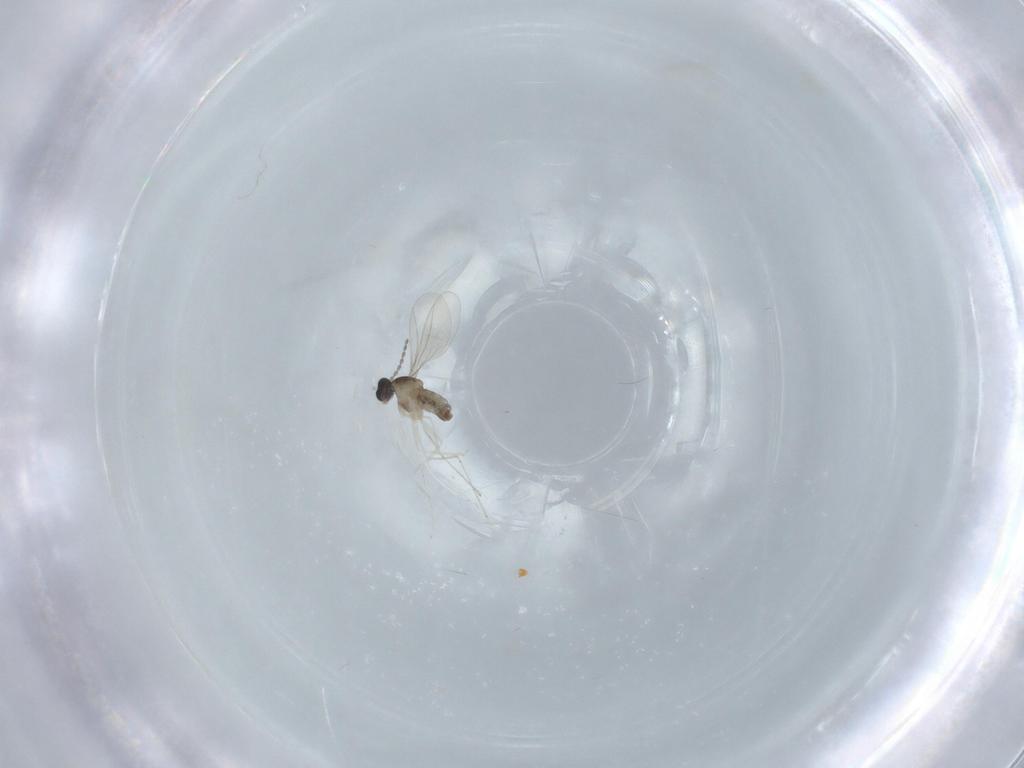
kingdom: Animalia
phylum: Arthropoda
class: Insecta
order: Diptera
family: Cecidomyiidae
